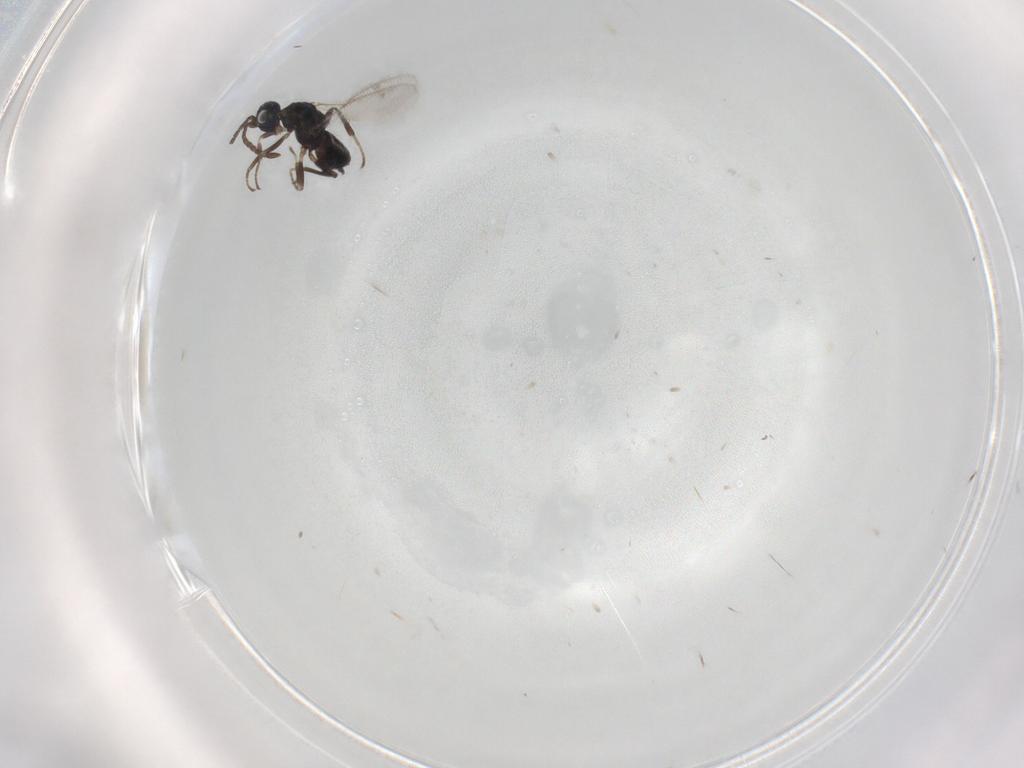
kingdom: Animalia
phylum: Arthropoda
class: Insecta
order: Hymenoptera
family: Eupelmidae
